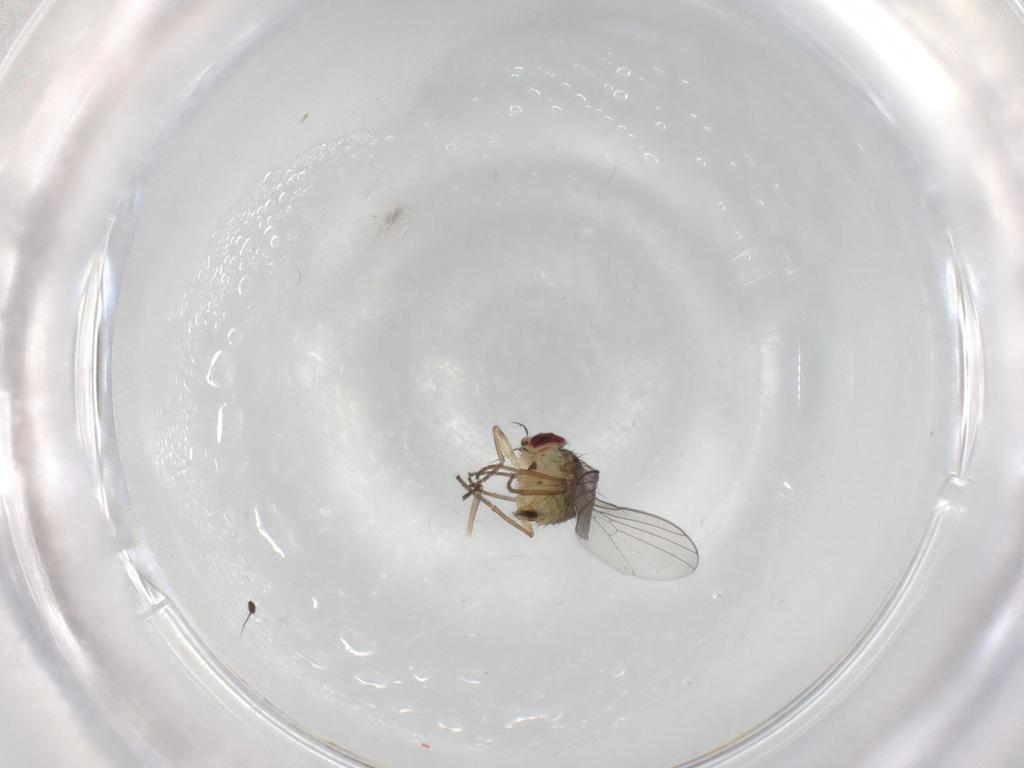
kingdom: Animalia
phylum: Arthropoda
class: Insecta
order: Diptera
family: Agromyzidae
